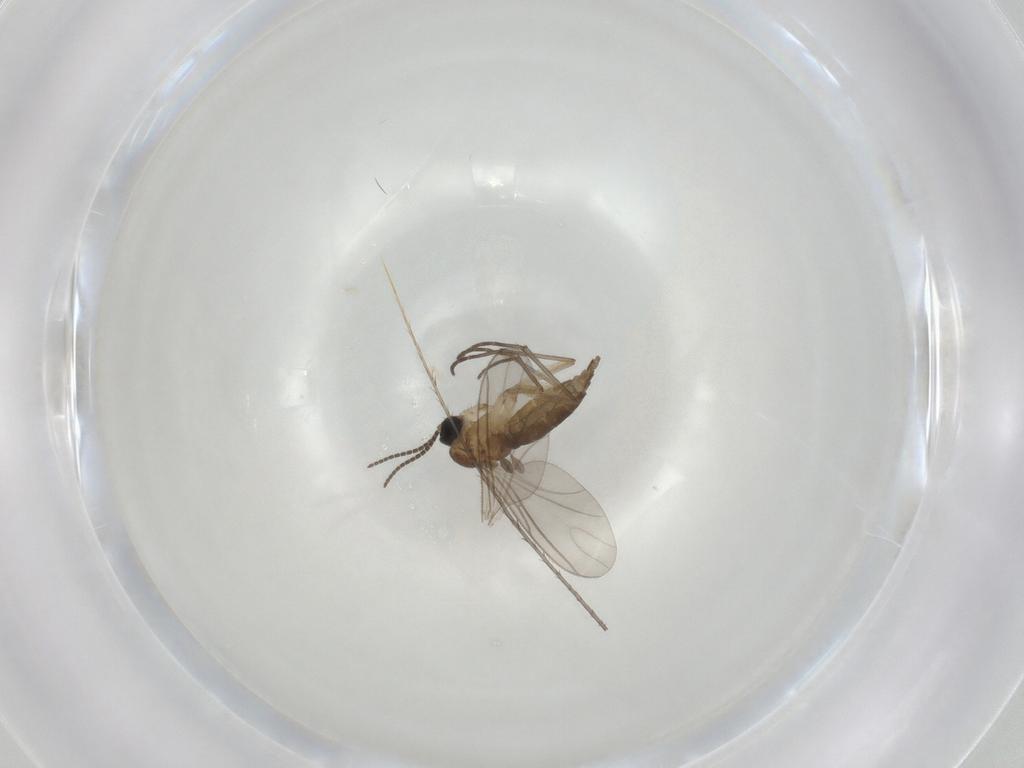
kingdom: Animalia
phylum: Arthropoda
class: Insecta
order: Diptera
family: Sciaridae
